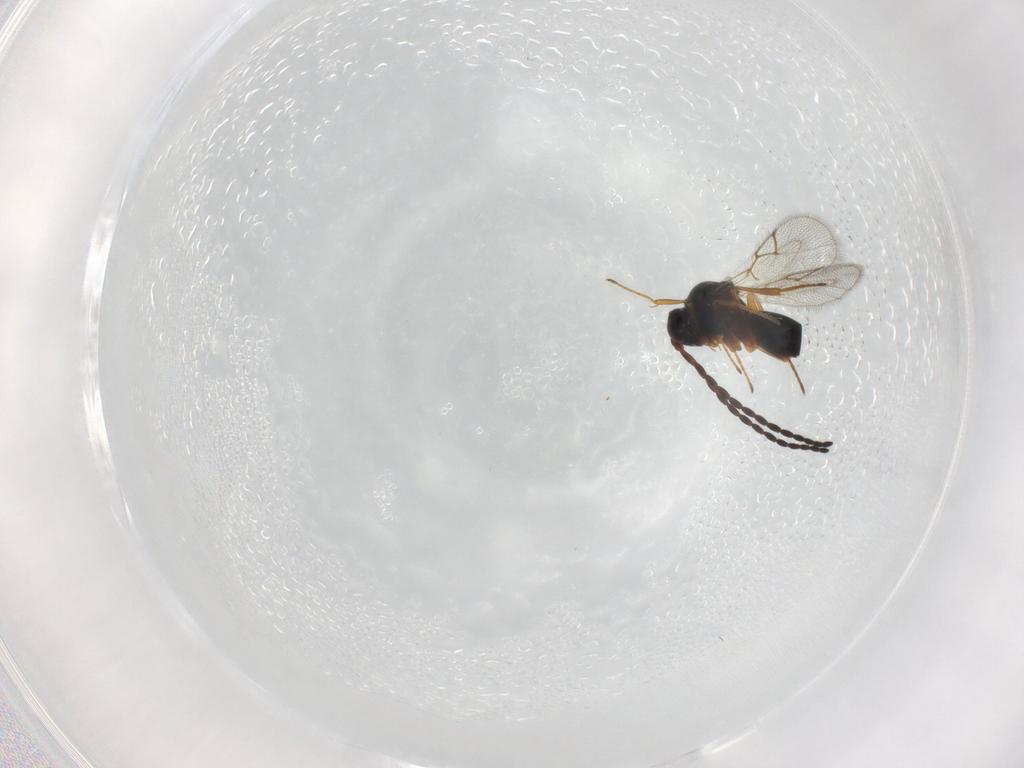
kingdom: Animalia
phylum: Arthropoda
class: Insecta
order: Hymenoptera
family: Figitidae
